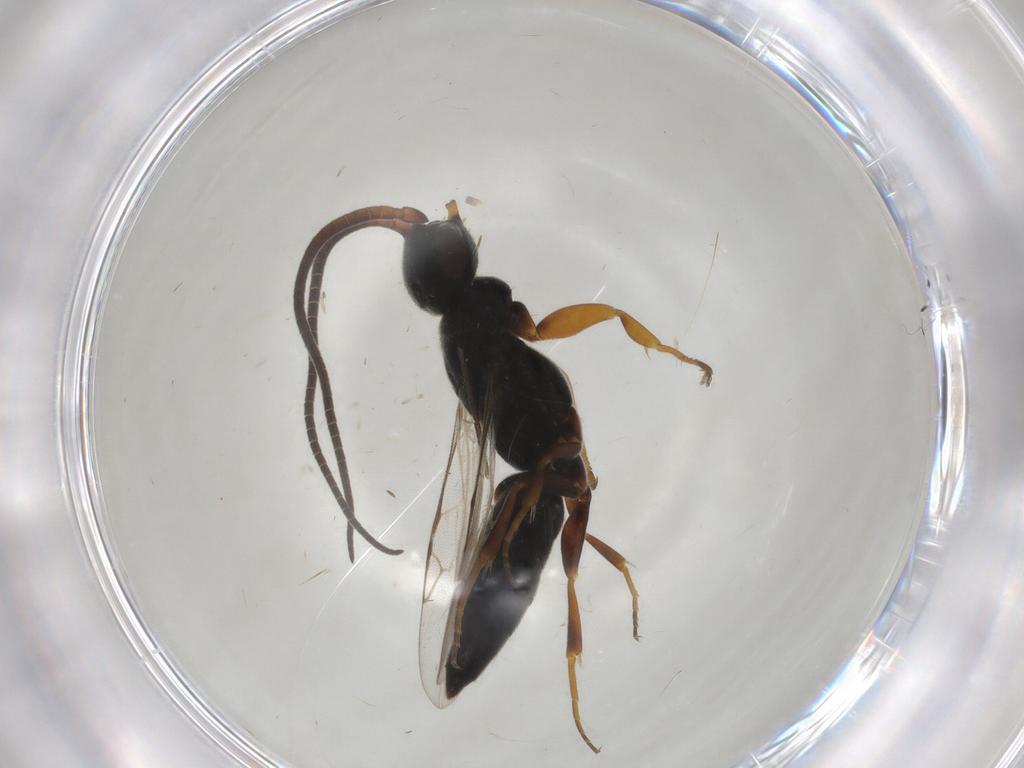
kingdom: Animalia
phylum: Arthropoda
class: Insecta
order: Hymenoptera
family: Sclerogibbidae
